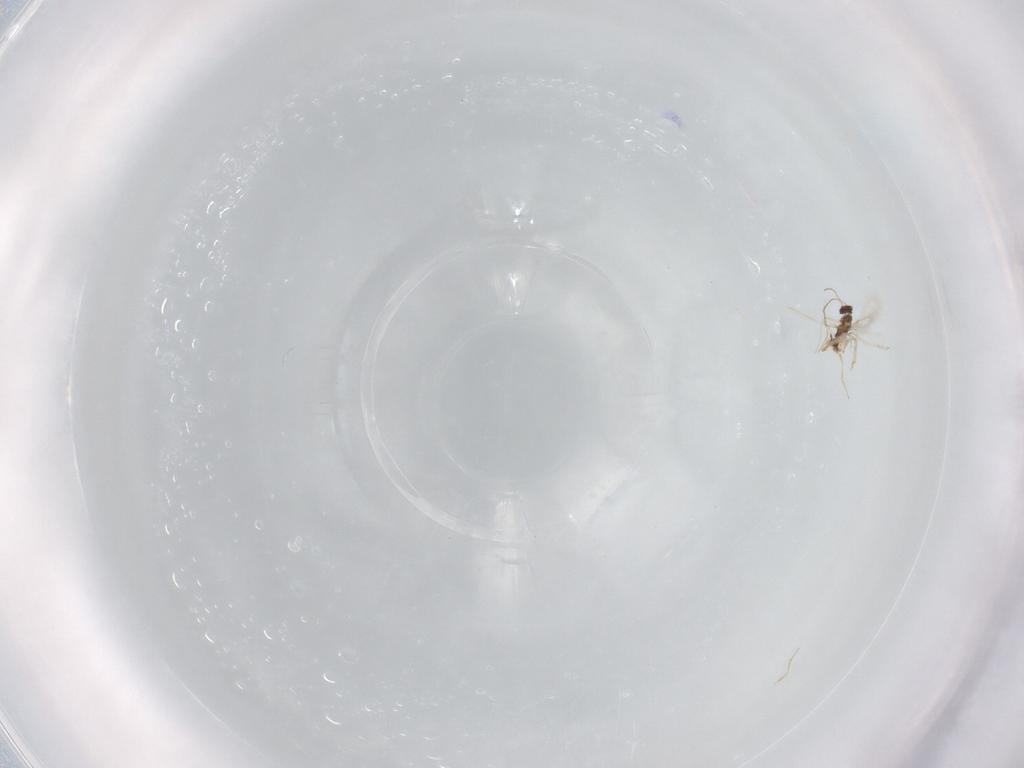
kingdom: Animalia
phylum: Arthropoda
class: Insecta
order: Hymenoptera
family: Mymaridae
